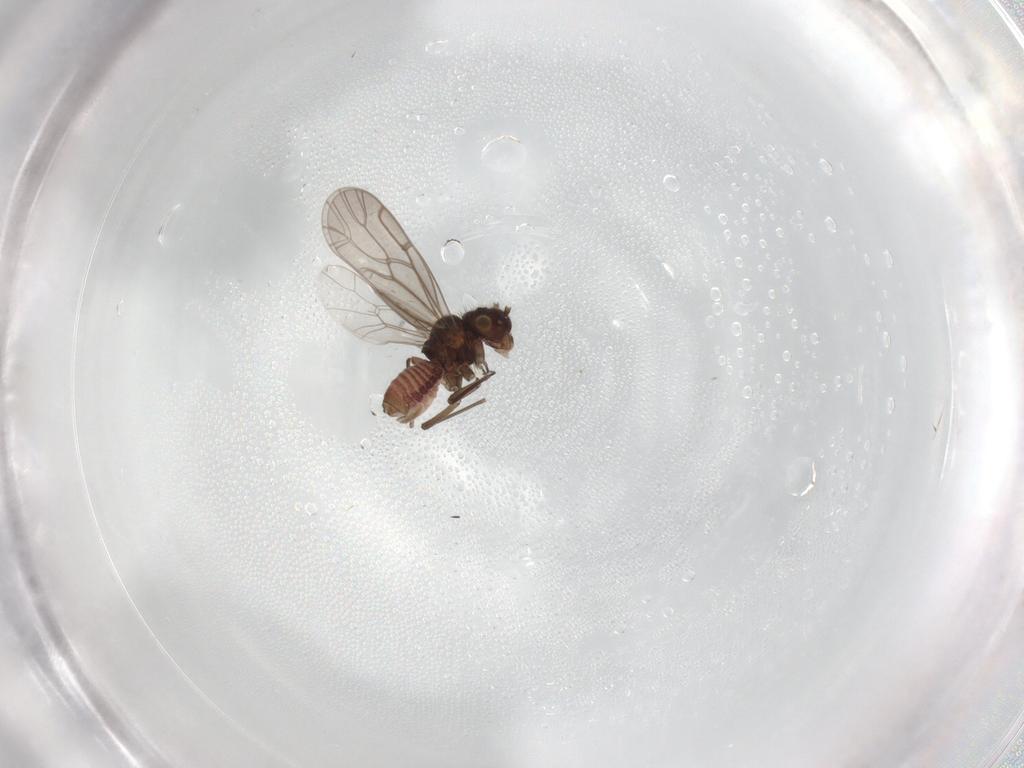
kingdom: Animalia
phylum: Arthropoda
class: Insecta
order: Psocodea
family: Ectopsocidae
